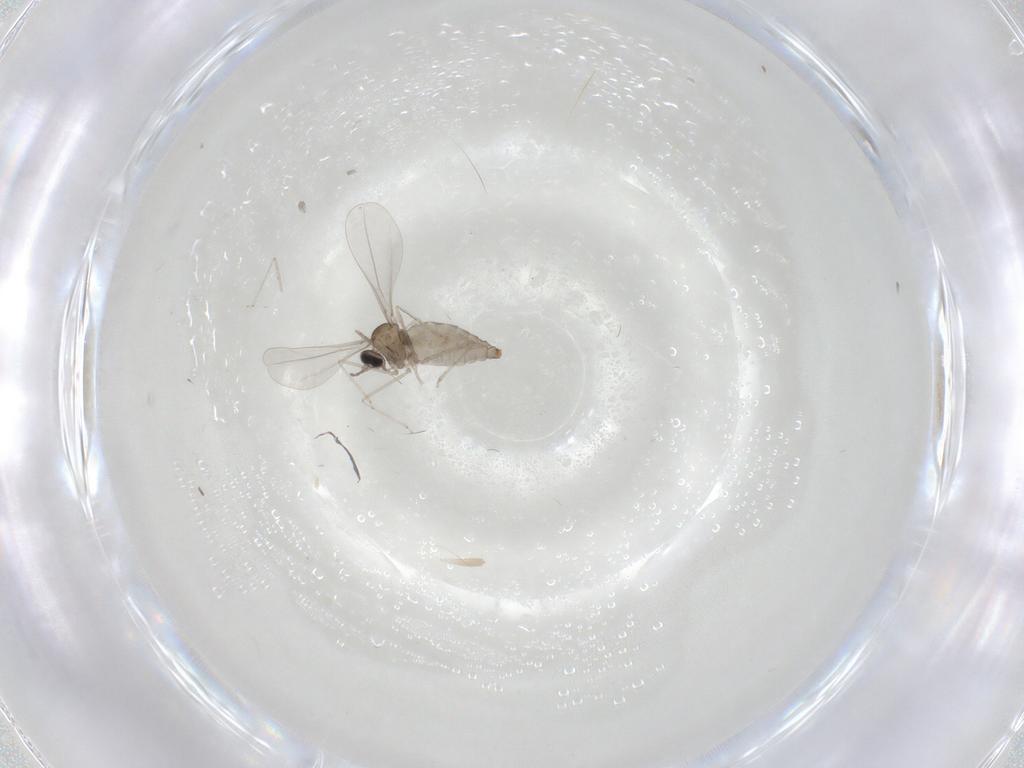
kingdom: Animalia
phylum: Arthropoda
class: Insecta
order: Diptera
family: Cecidomyiidae
